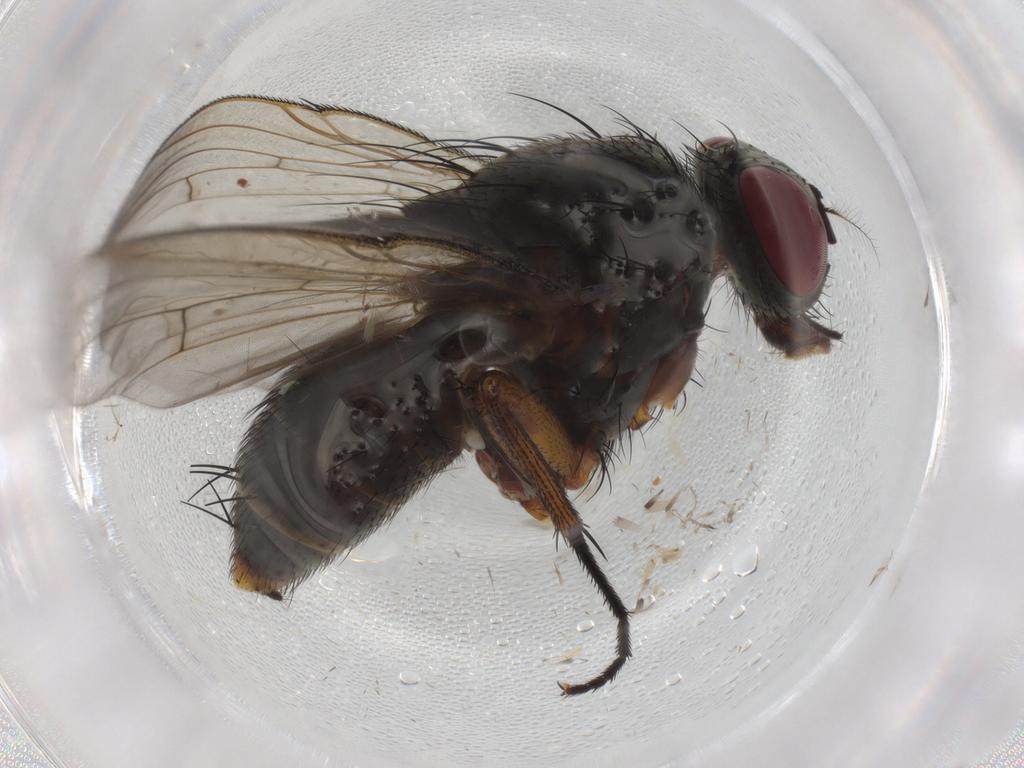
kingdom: Animalia
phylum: Arthropoda
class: Insecta
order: Diptera
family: Muscidae
